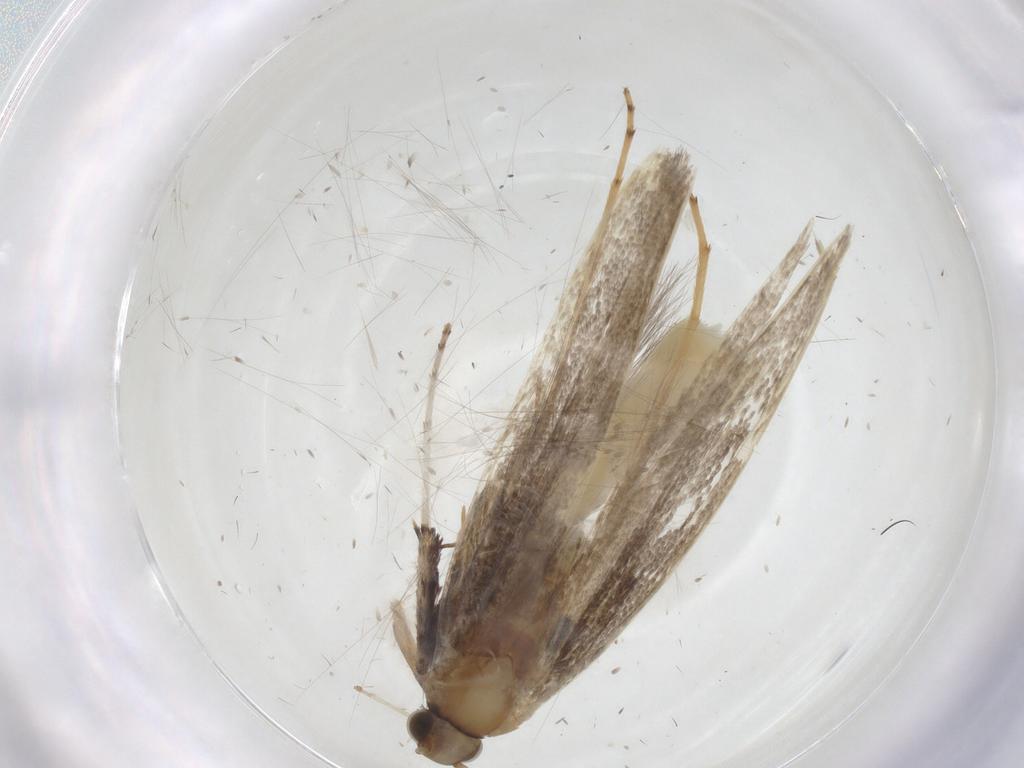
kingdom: Animalia
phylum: Arthropoda
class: Insecta
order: Lepidoptera
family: Gracillariidae
